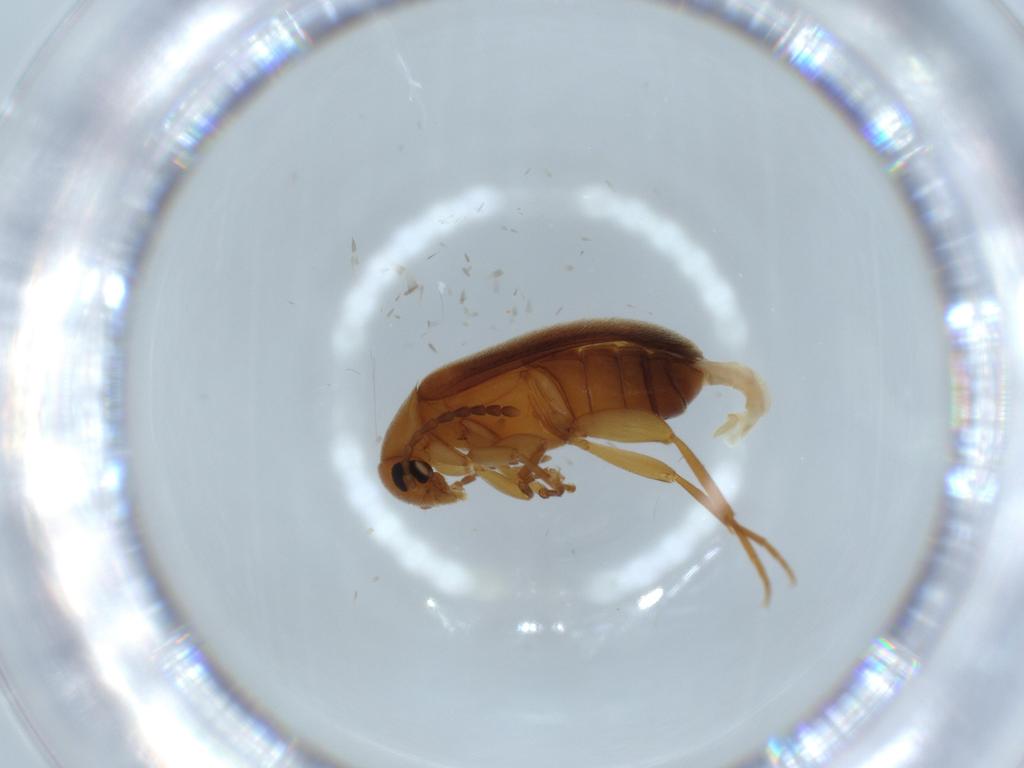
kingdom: Animalia
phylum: Arthropoda
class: Insecta
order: Coleoptera
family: Scraptiidae
